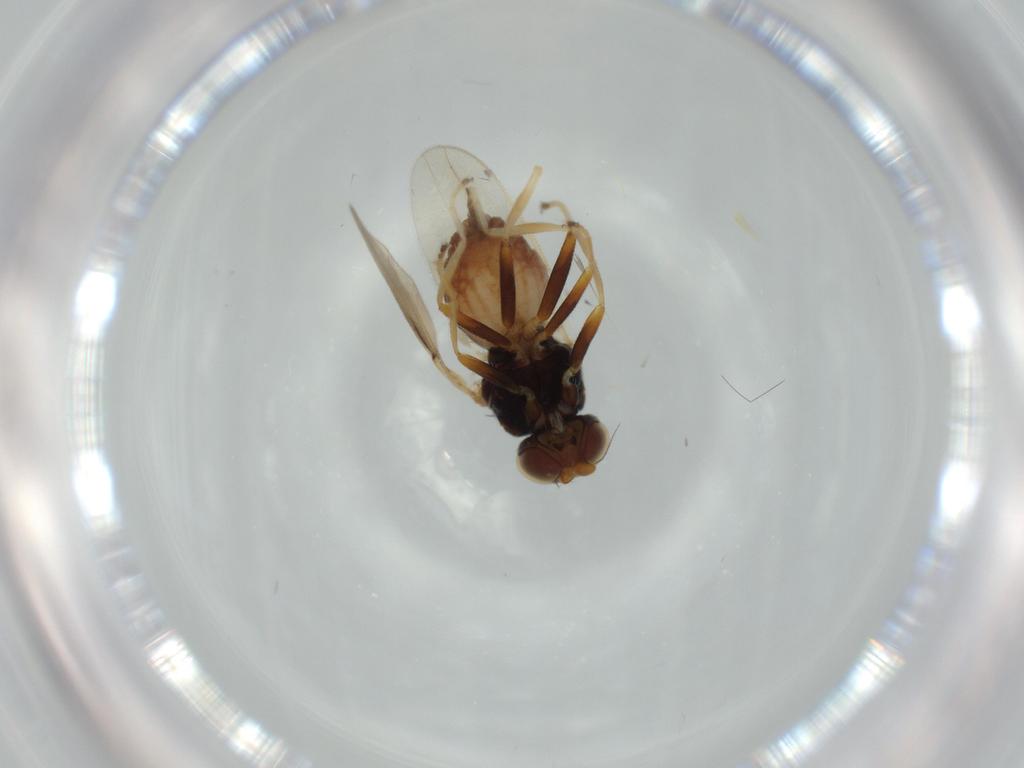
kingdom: Animalia
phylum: Arthropoda
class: Insecta
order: Diptera
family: Chloropidae
